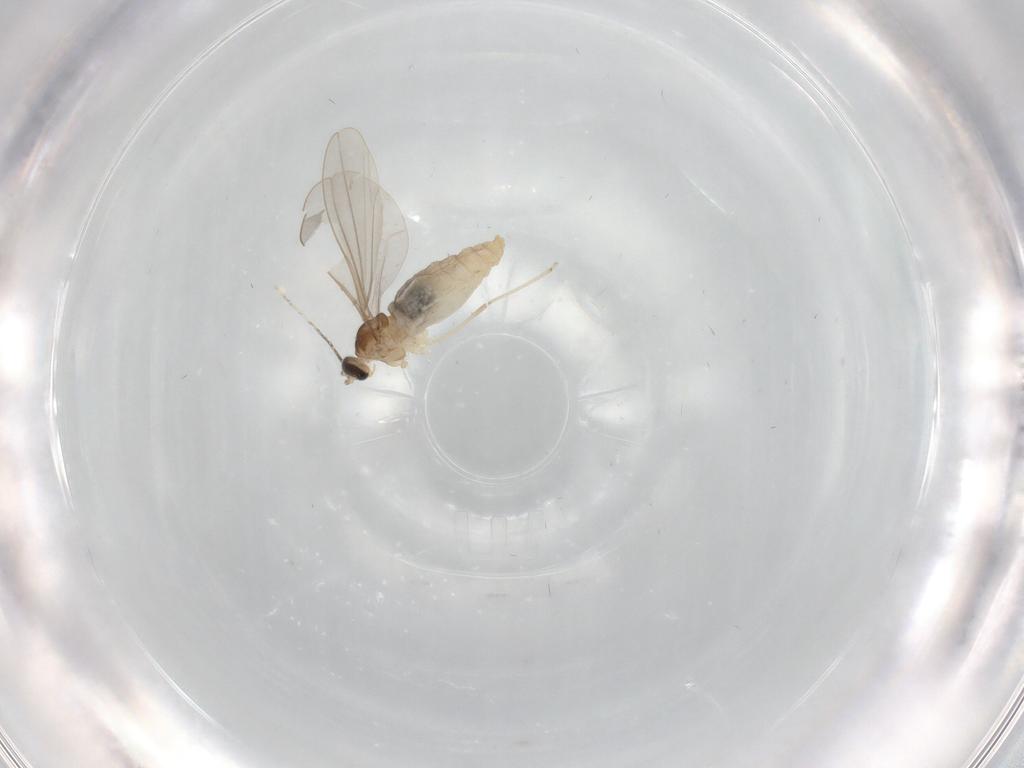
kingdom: Animalia
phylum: Arthropoda
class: Insecta
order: Diptera
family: Cecidomyiidae
